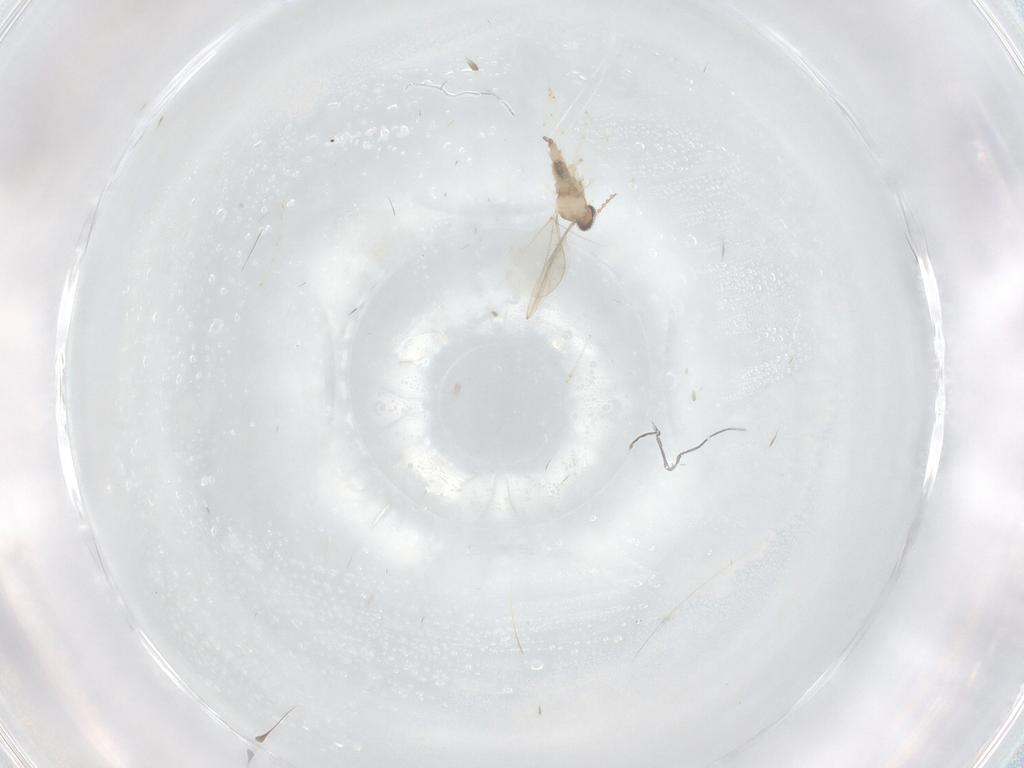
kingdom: Animalia
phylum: Arthropoda
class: Insecta
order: Diptera
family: Cecidomyiidae
